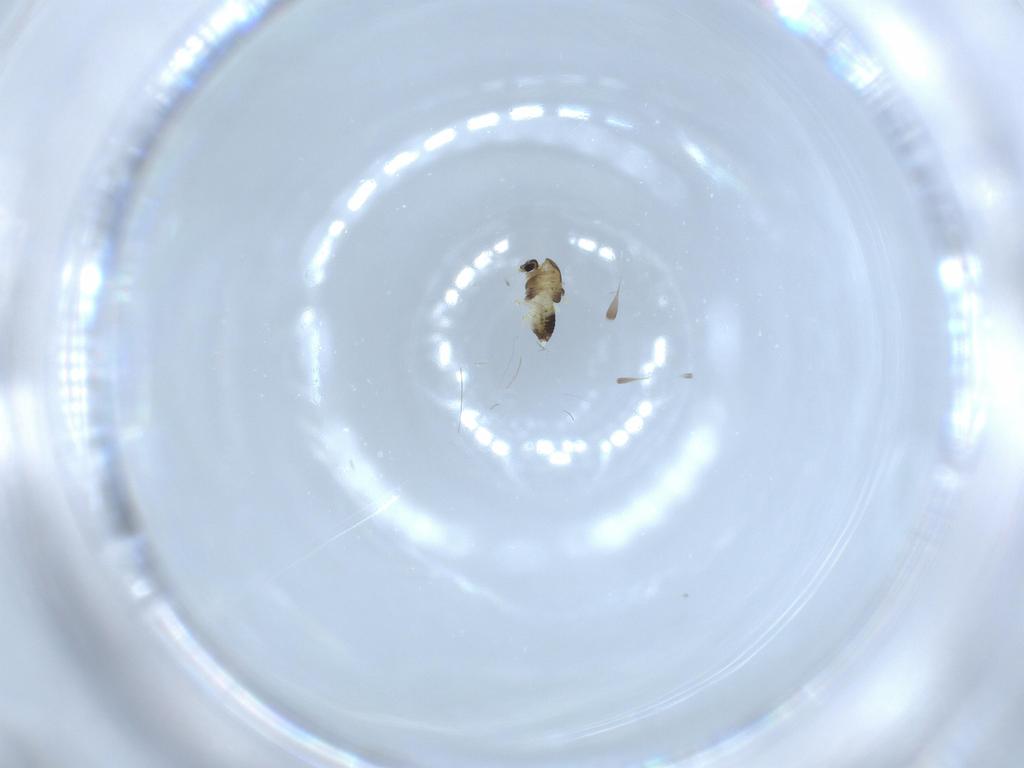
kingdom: Animalia
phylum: Arthropoda
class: Insecta
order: Diptera
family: Chironomidae
